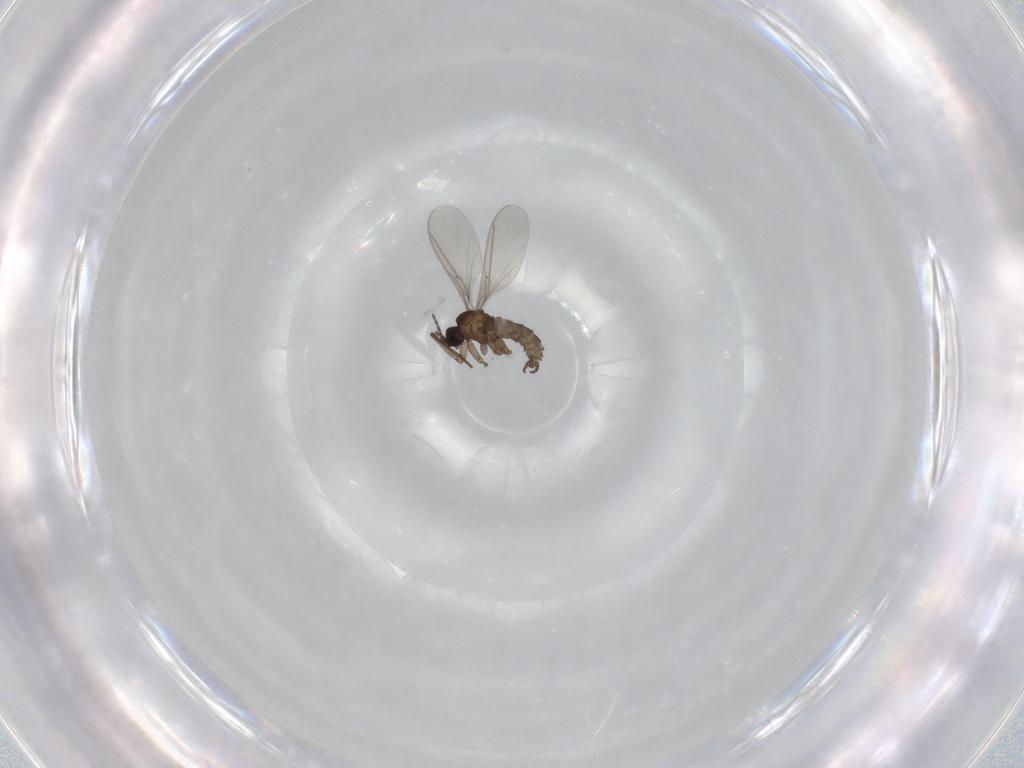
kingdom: Animalia
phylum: Arthropoda
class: Insecta
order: Diptera
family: Sciaridae
